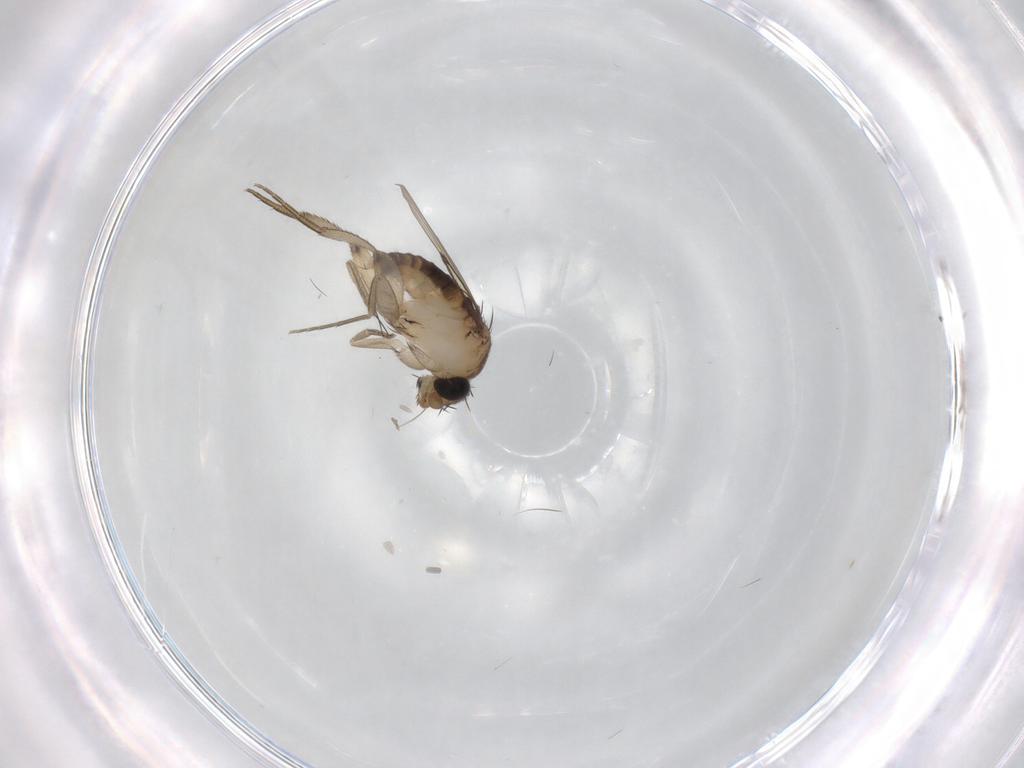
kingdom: Animalia
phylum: Arthropoda
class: Insecta
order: Diptera
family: Phoridae
